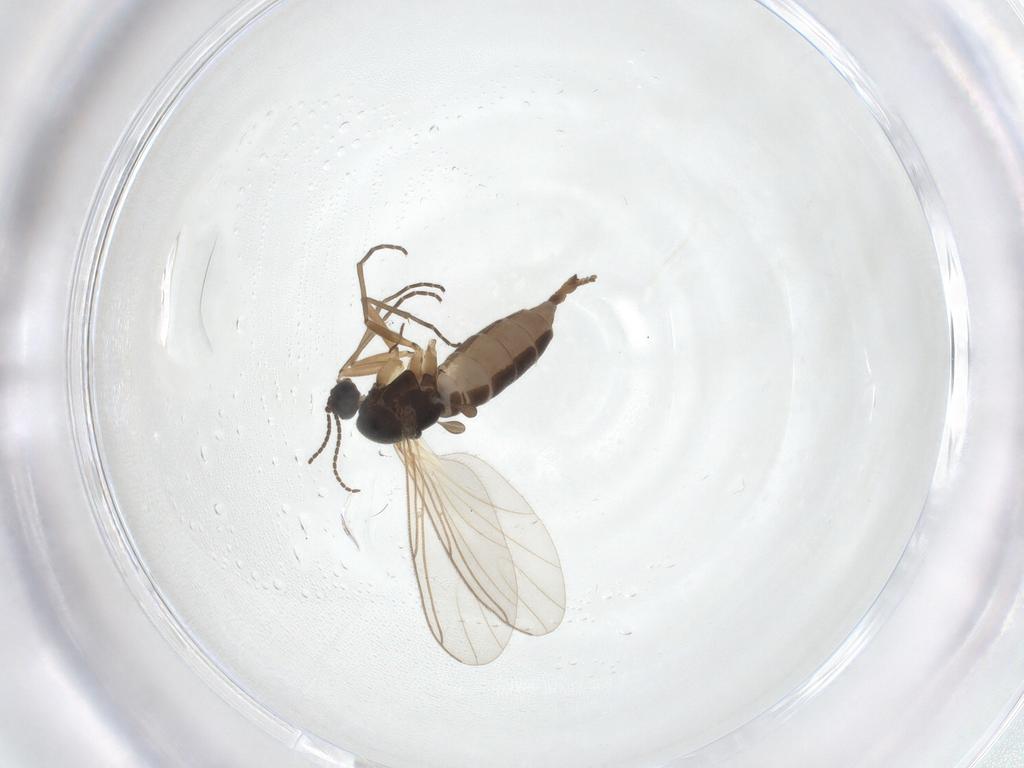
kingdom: Animalia
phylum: Arthropoda
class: Insecta
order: Diptera
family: Sciaridae
